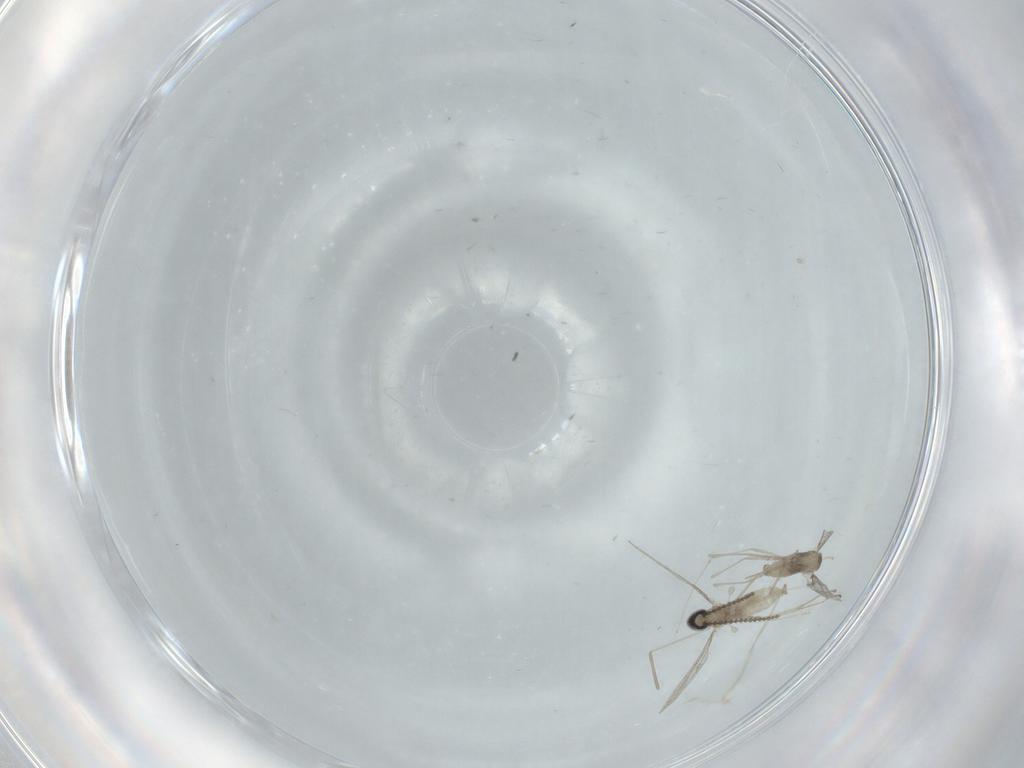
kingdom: Animalia
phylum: Arthropoda
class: Insecta
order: Diptera
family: Cecidomyiidae
